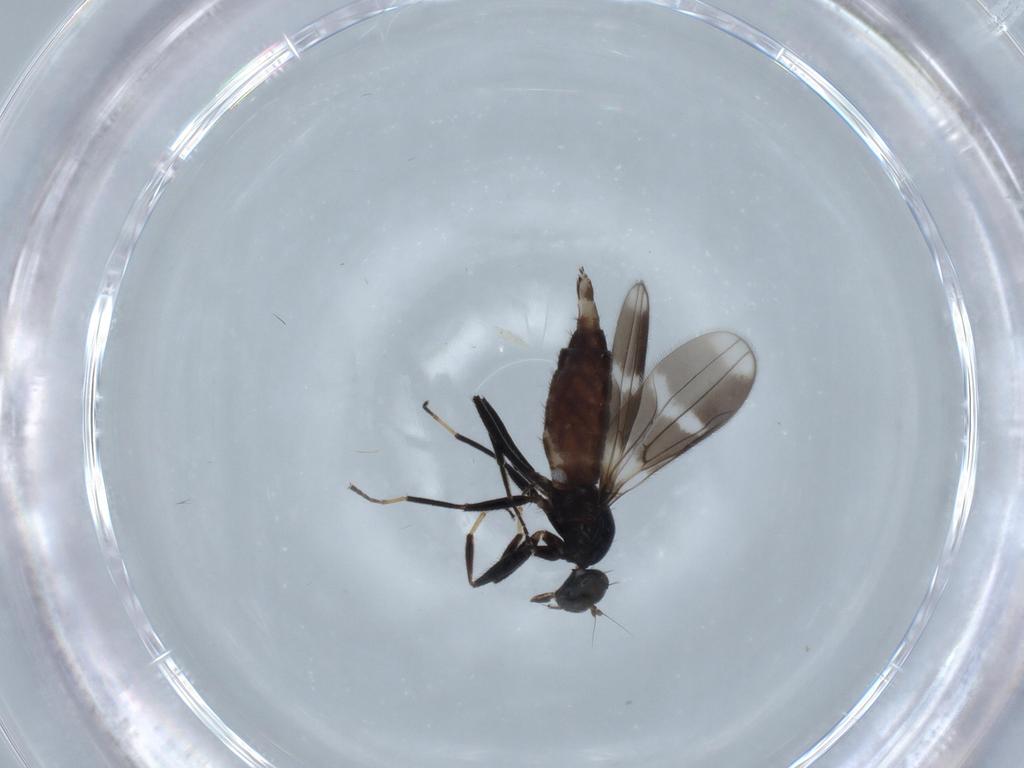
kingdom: Animalia
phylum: Arthropoda
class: Insecta
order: Diptera
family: Hybotidae
